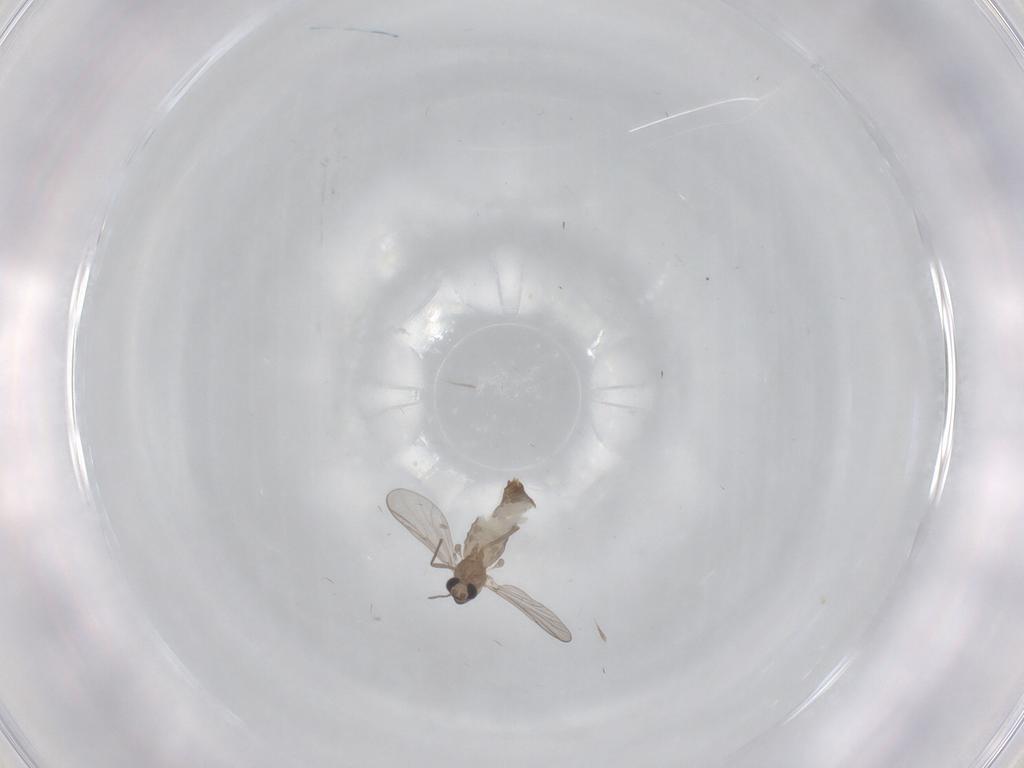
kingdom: Animalia
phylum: Arthropoda
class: Insecta
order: Diptera
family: Chironomidae
